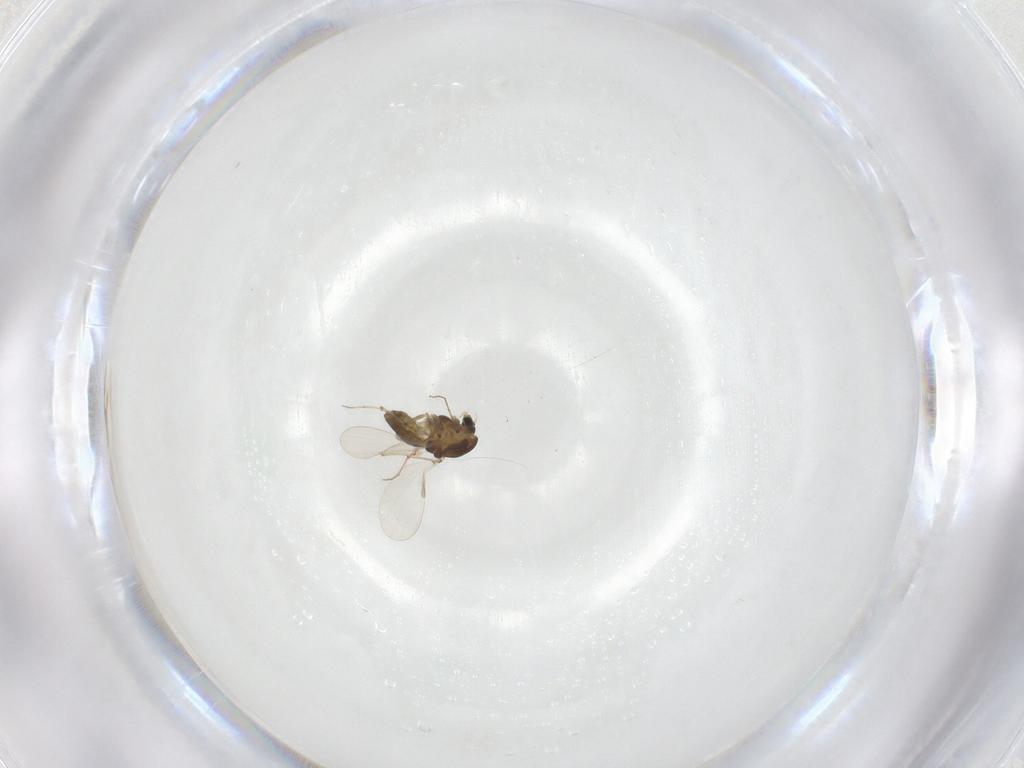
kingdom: Animalia
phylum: Arthropoda
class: Insecta
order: Diptera
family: Chironomidae
